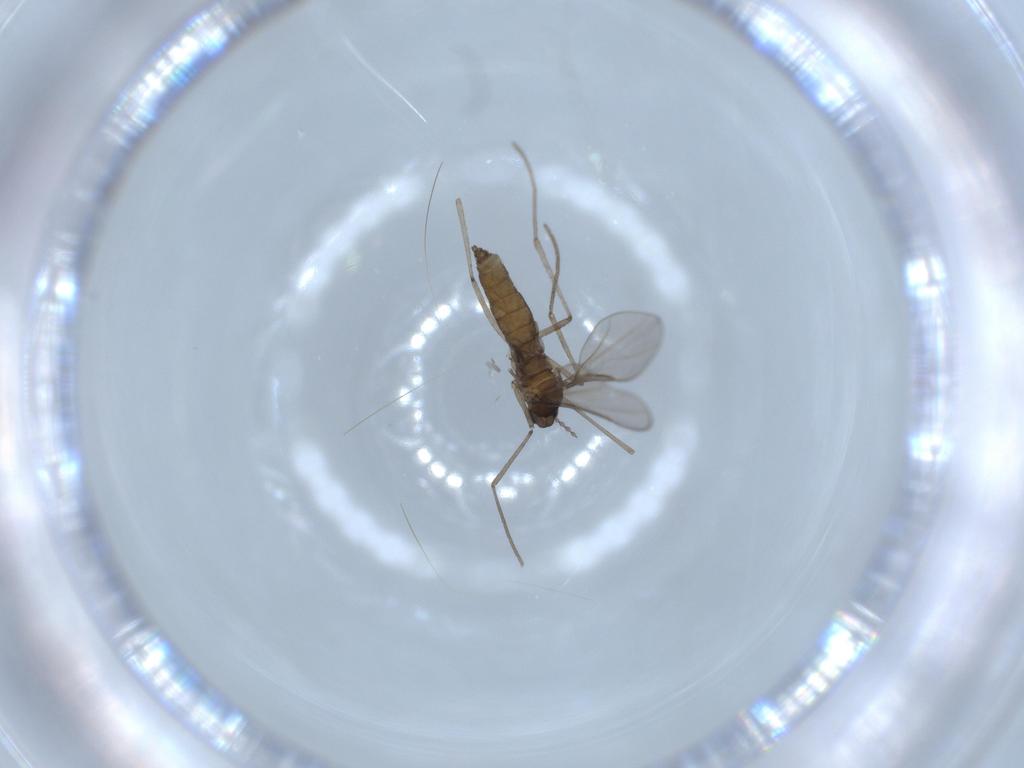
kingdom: Animalia
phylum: Arthropoda
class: Insecta
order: Diptera
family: Cecidomyiidae
